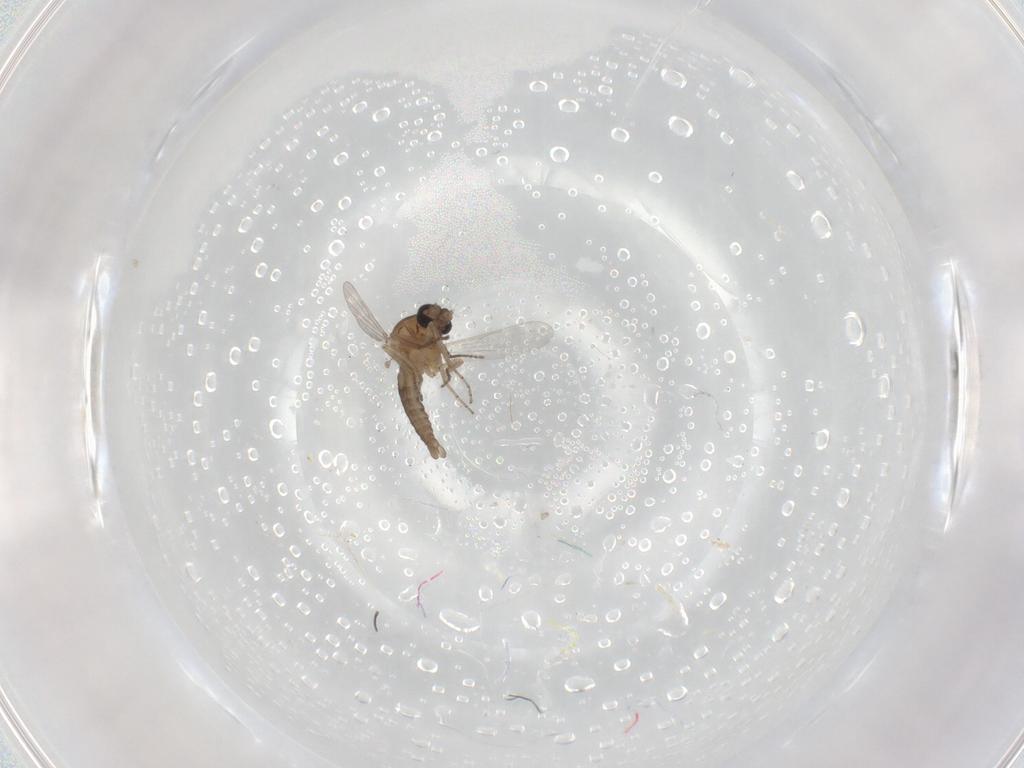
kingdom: Animalia
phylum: Arthropoda
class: Insecta
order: Diptera
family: Ceratopogonidae
